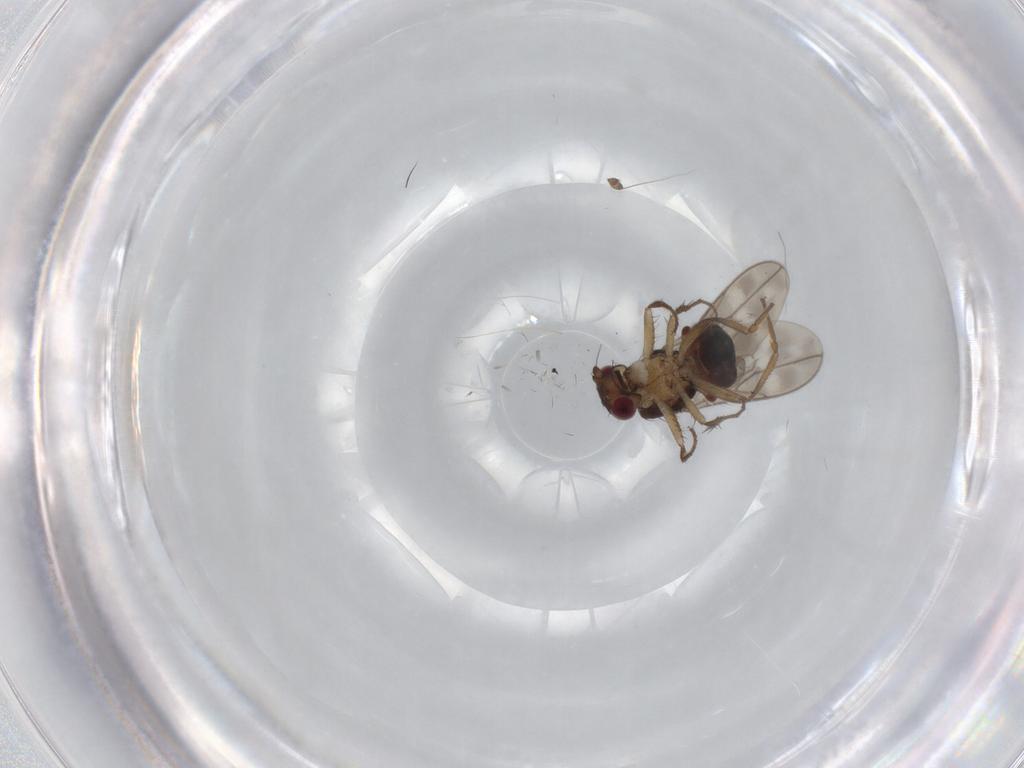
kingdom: Animalia
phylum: Arthropoda
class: Insecta
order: Diptera
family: Sphaeroceridae
